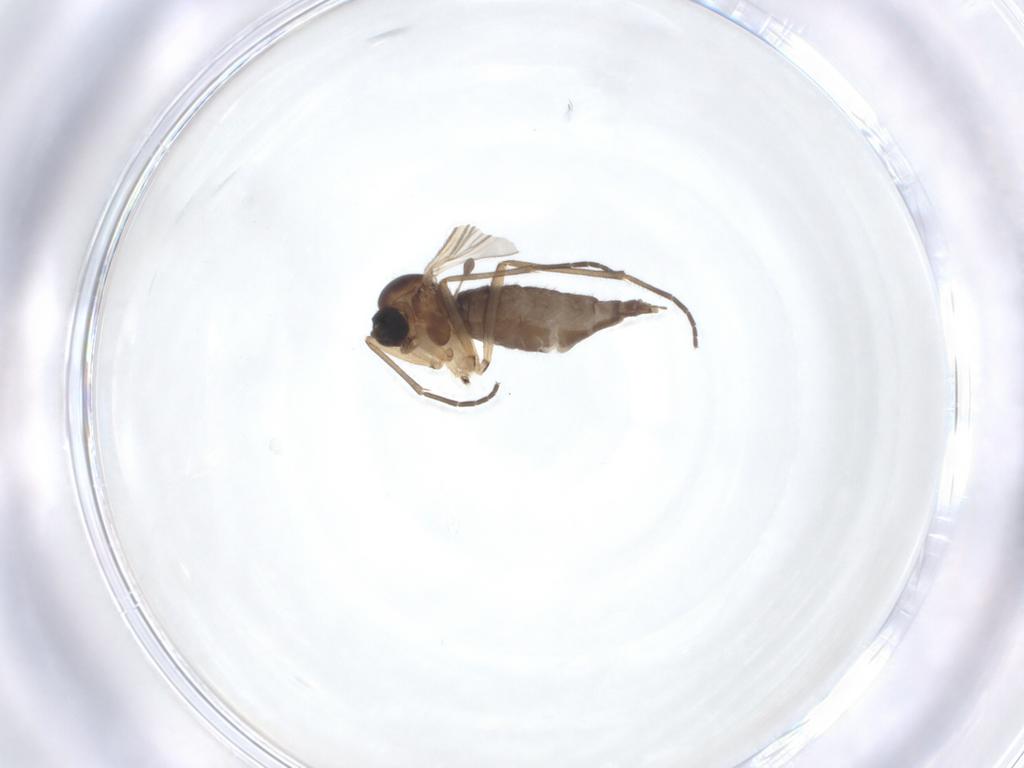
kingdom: Animalia
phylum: Arthropoda
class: Insecta
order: Diptera
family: Sciaridae
